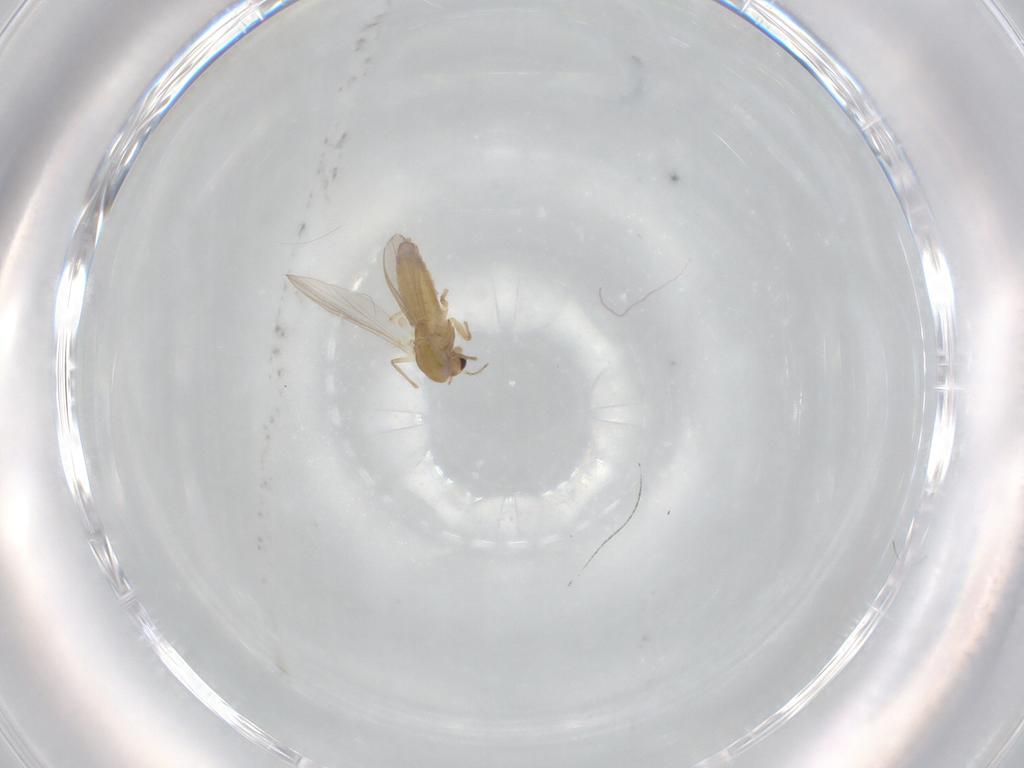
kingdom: Animalia
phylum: Arthropoda
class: Insecta
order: Diptera
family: Chironomidae
